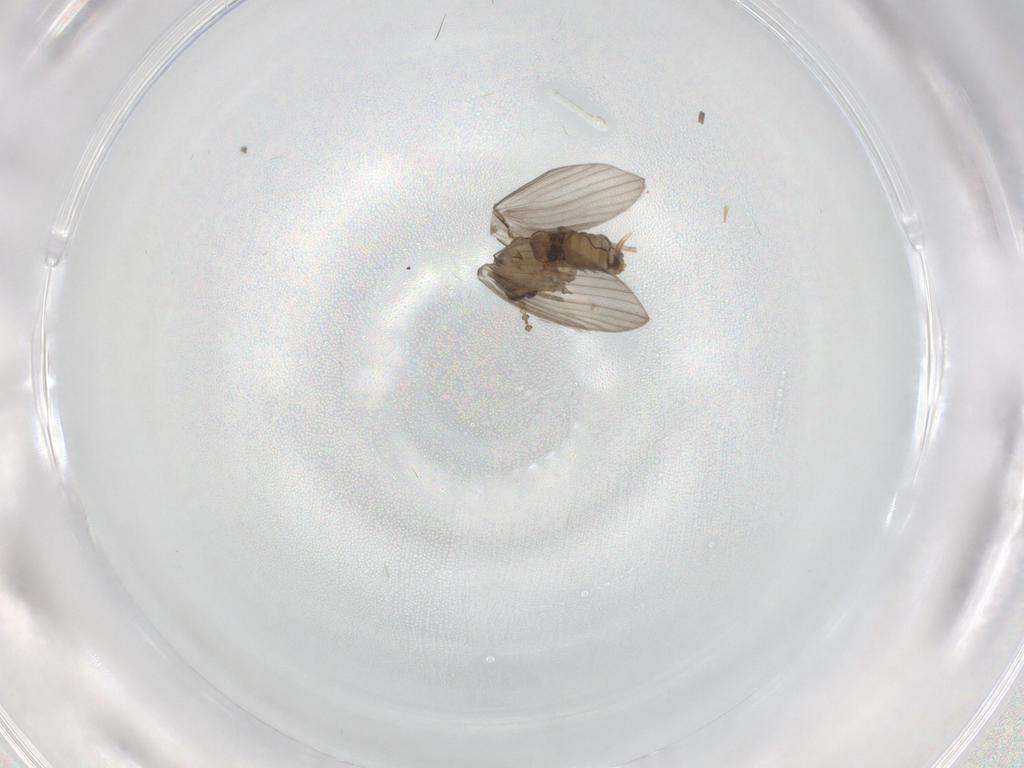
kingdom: Animalia
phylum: Arthropoda
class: Insecta
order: Diptera
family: Psychodidae
